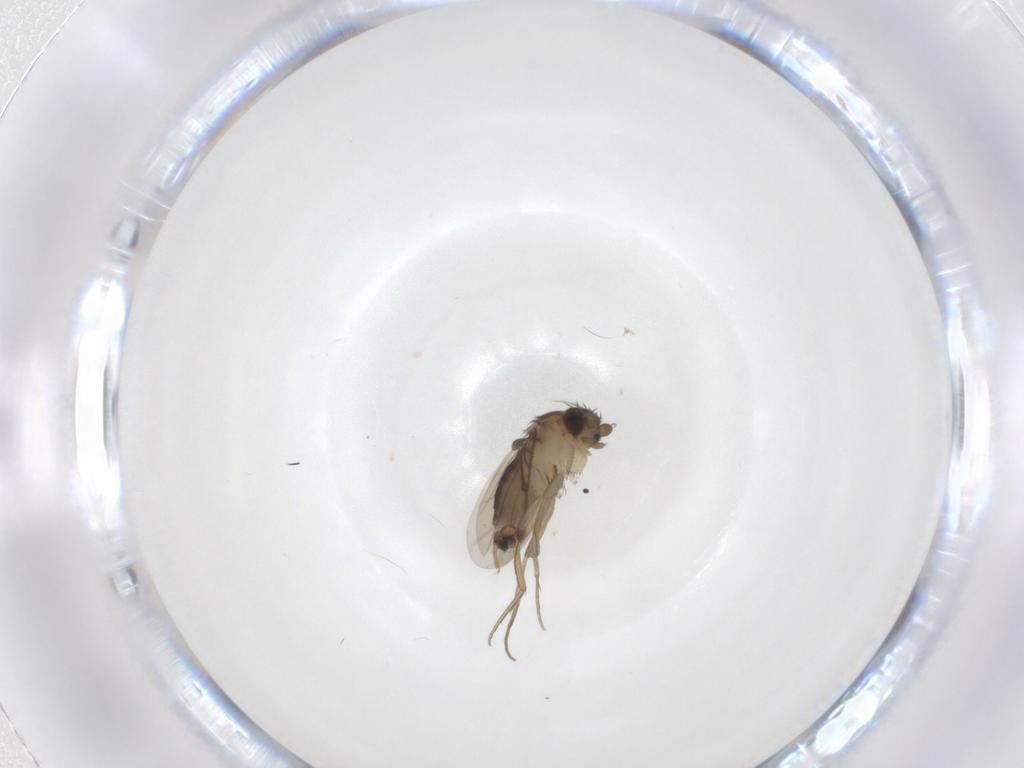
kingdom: Animalia
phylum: Arthropoda
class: Insecta
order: Diptera
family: Phoridae
